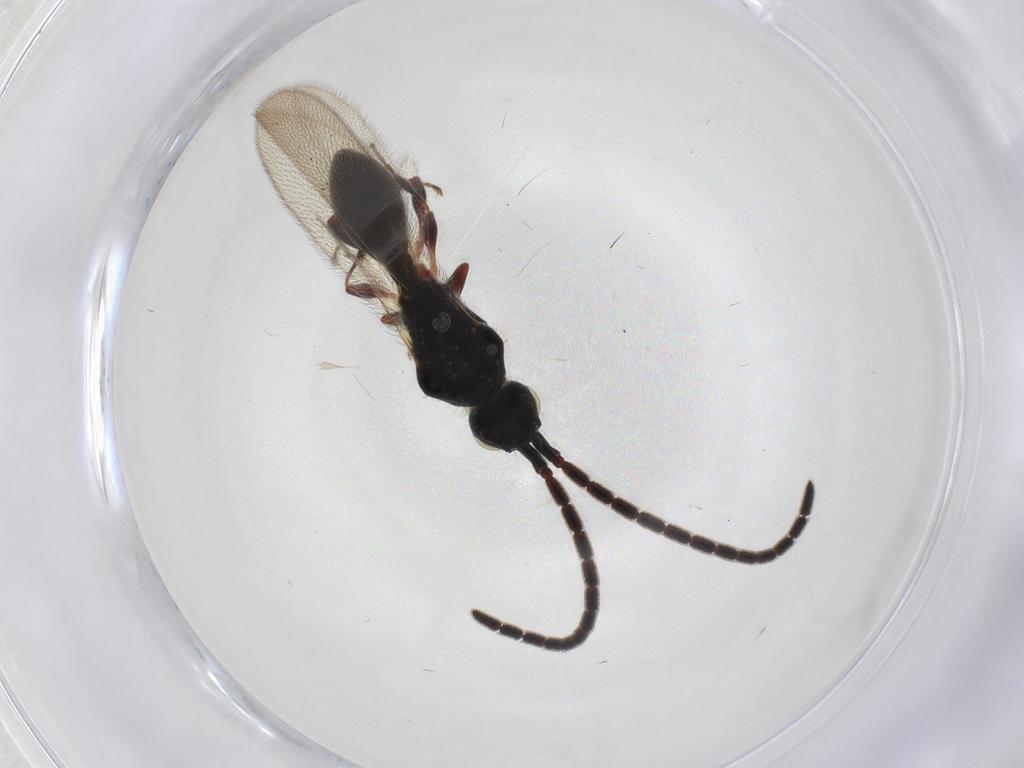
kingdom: Animalia
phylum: Arthropoda
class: Insecta
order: Hymenoptera
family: Diapriidae
